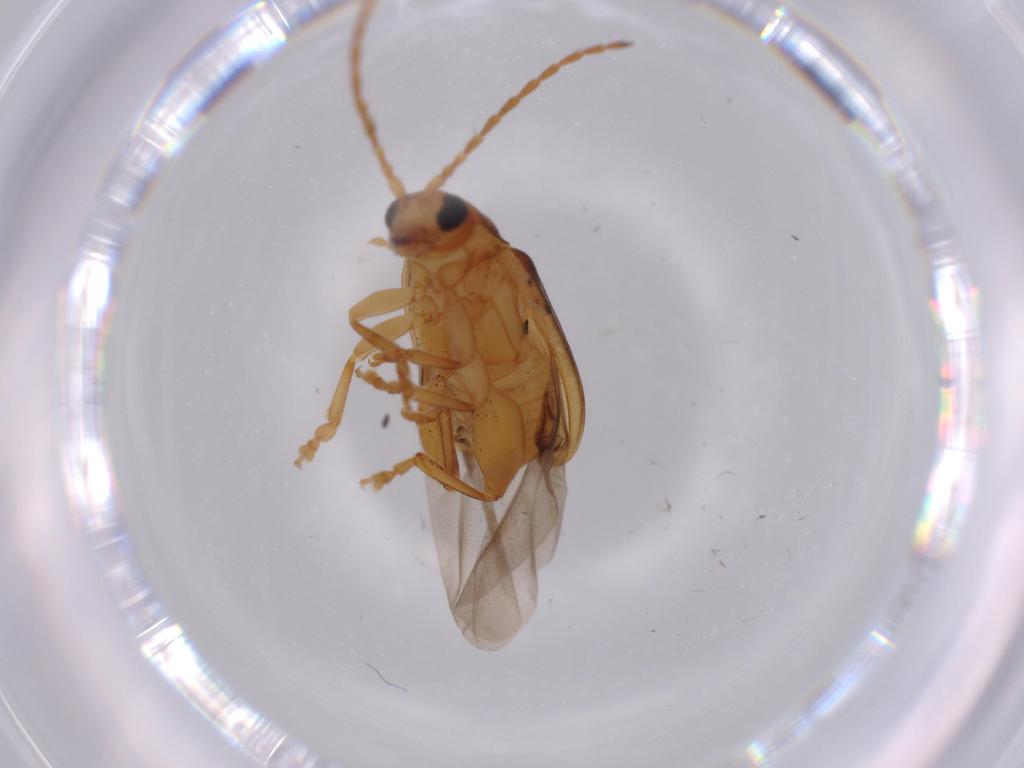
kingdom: Animalia
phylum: Arthropoda
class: Insecta
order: Coleoptera
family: Chrysomelidae
